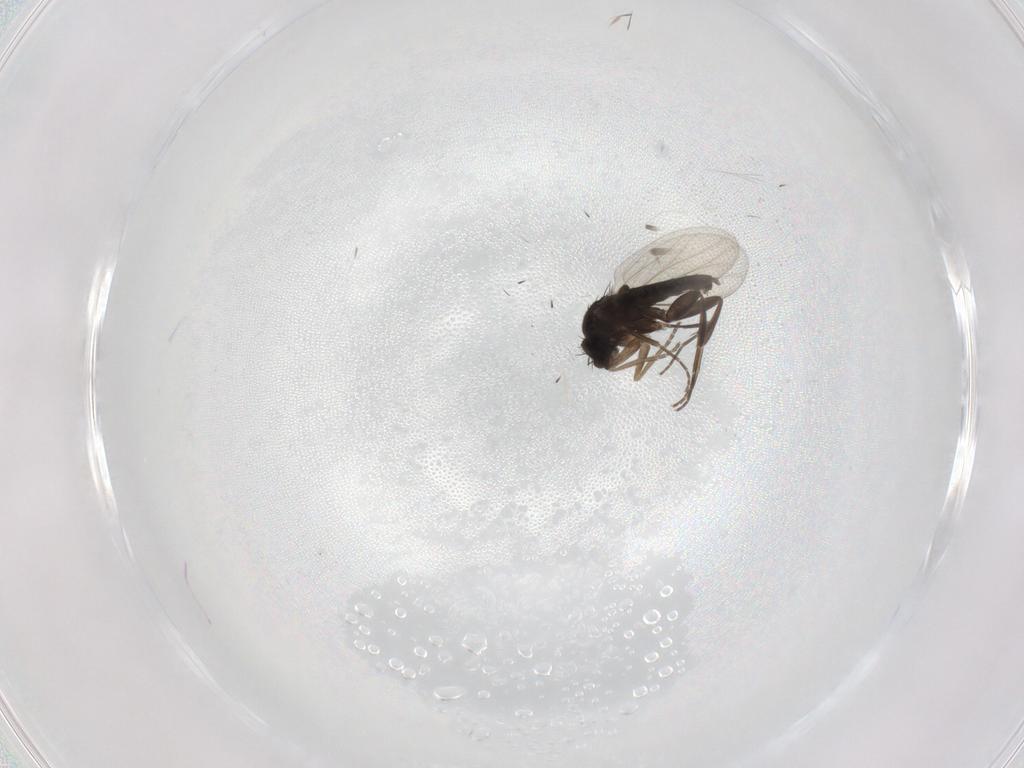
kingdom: Animalia
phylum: Arthropoda
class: Insecta
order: Diptera
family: Phoridae
